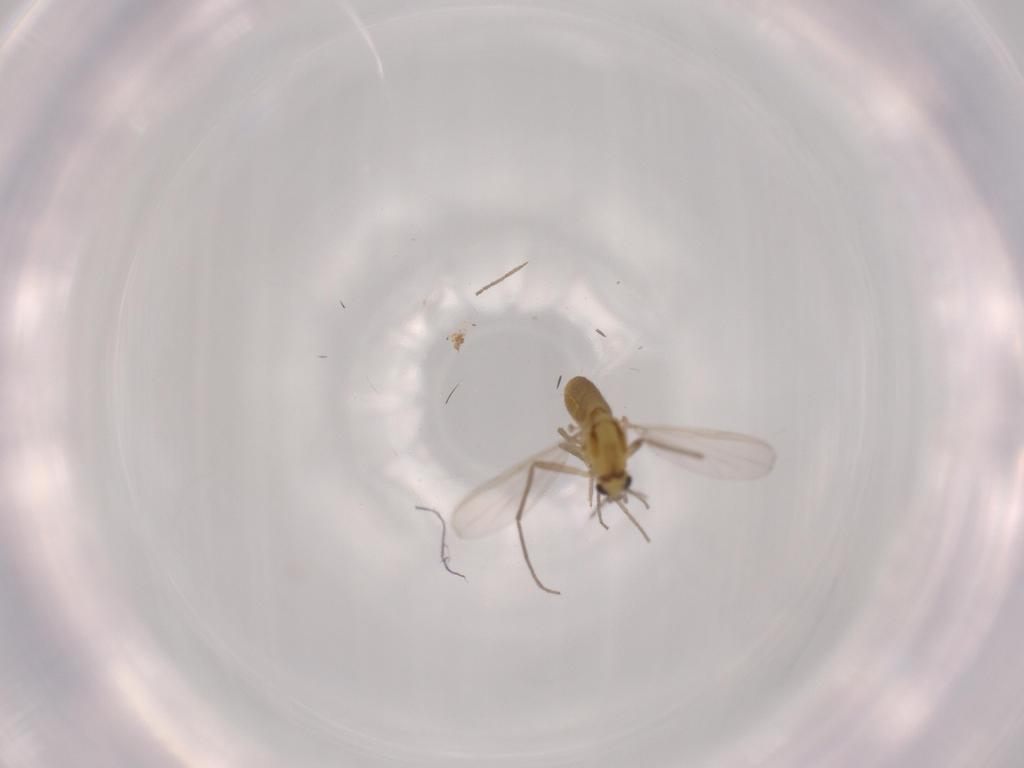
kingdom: Animalia
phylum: Arthropoda
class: Insecta
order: Diptera
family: Chironomidae
